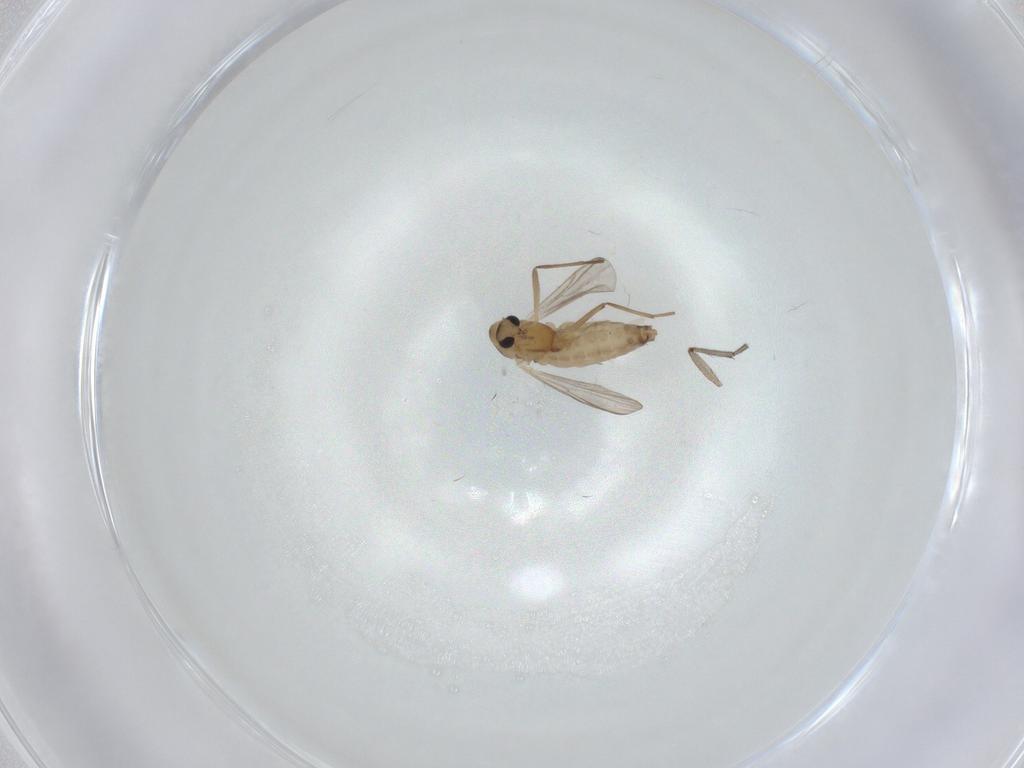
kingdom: Animalia
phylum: Arthropoda
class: Insecta
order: Diptera
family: Chironomidae
